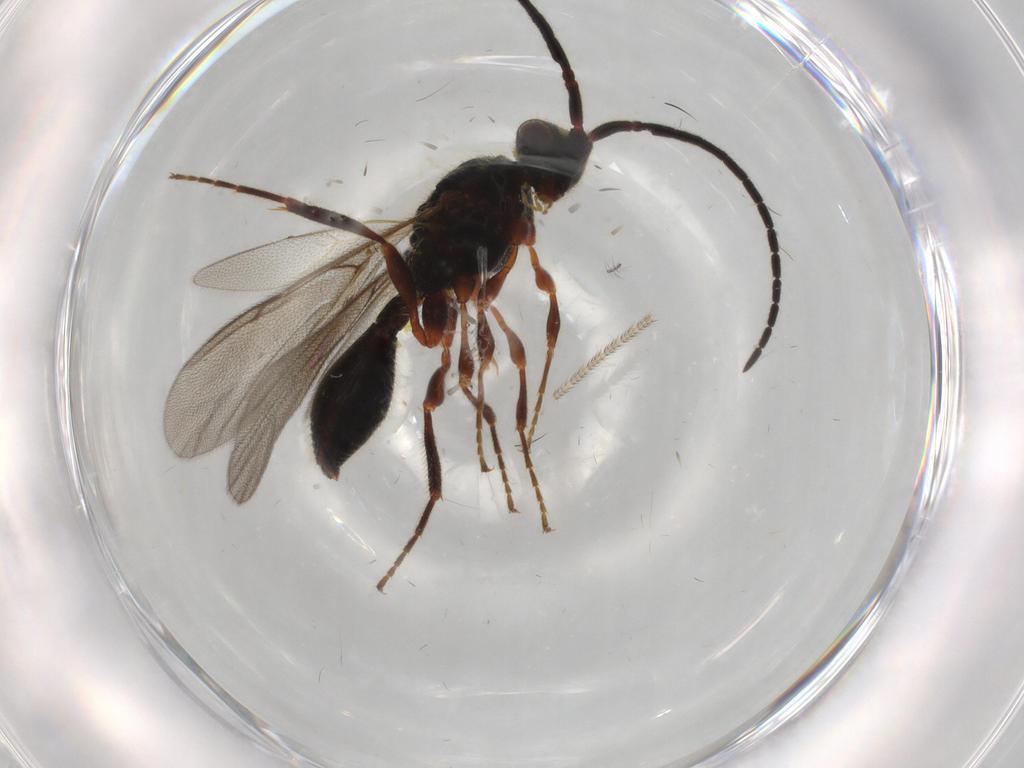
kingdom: Animalia
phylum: Arthropoda
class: Insecta
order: Hymenoptera
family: Diapriidae
